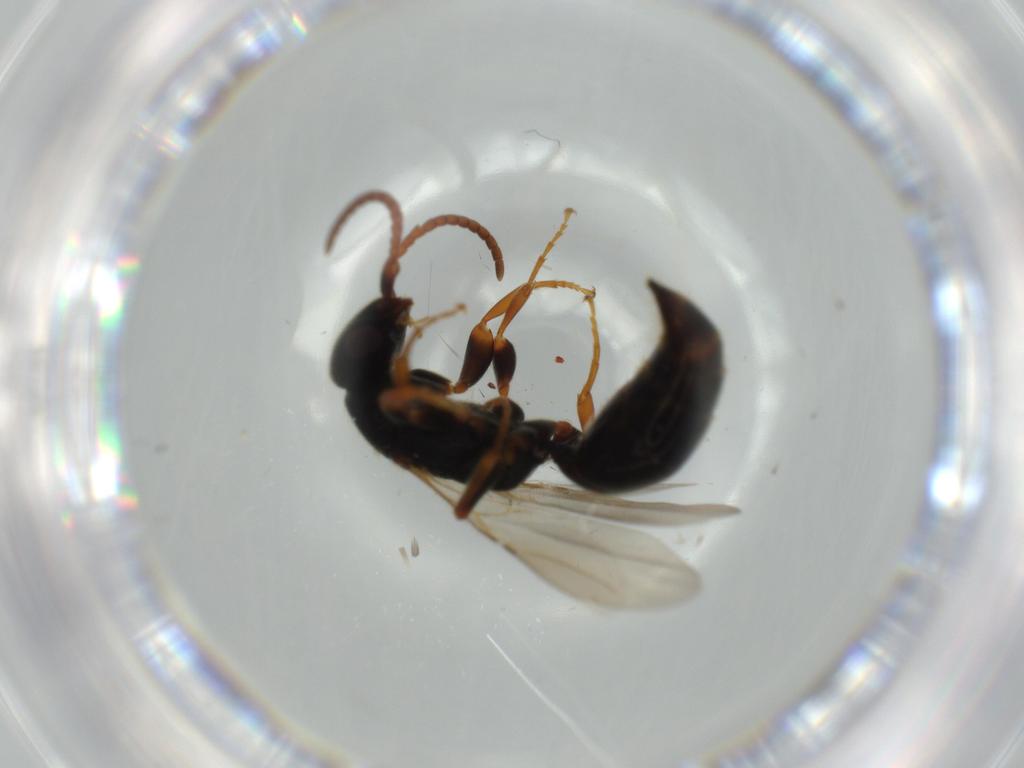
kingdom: Animalia
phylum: Arthropoda
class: Insecta
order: Hymenoptera
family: Bethylidae
